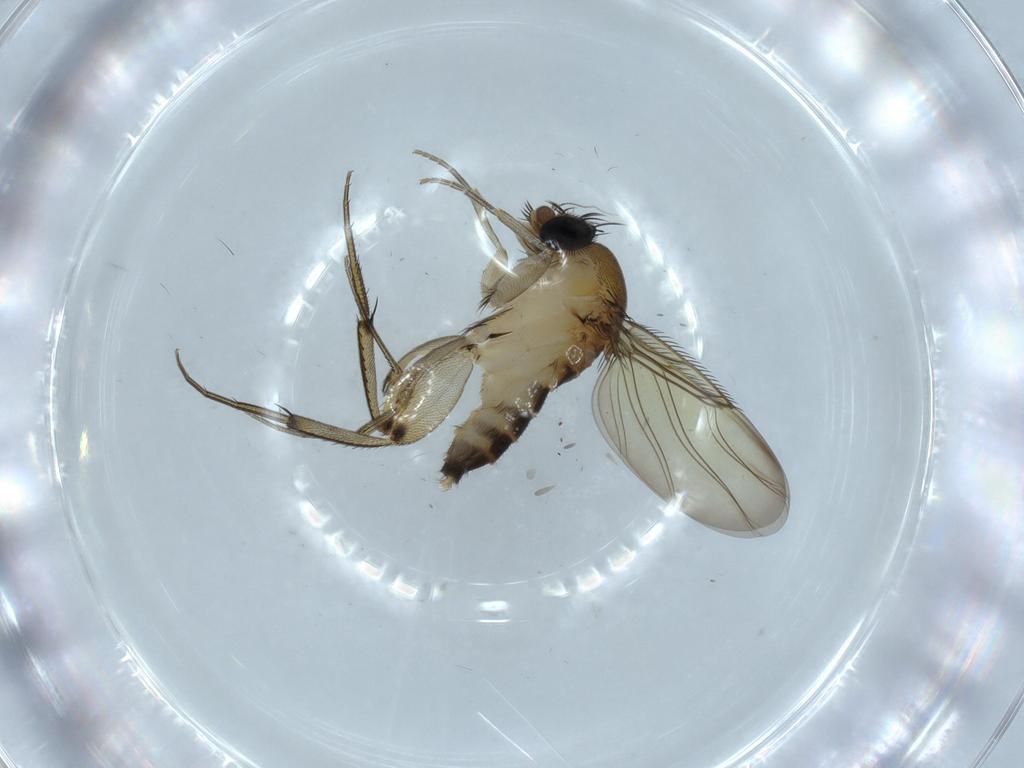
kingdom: Animalia
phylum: Arthropoda
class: Insecta
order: Diptera
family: Phoridae
